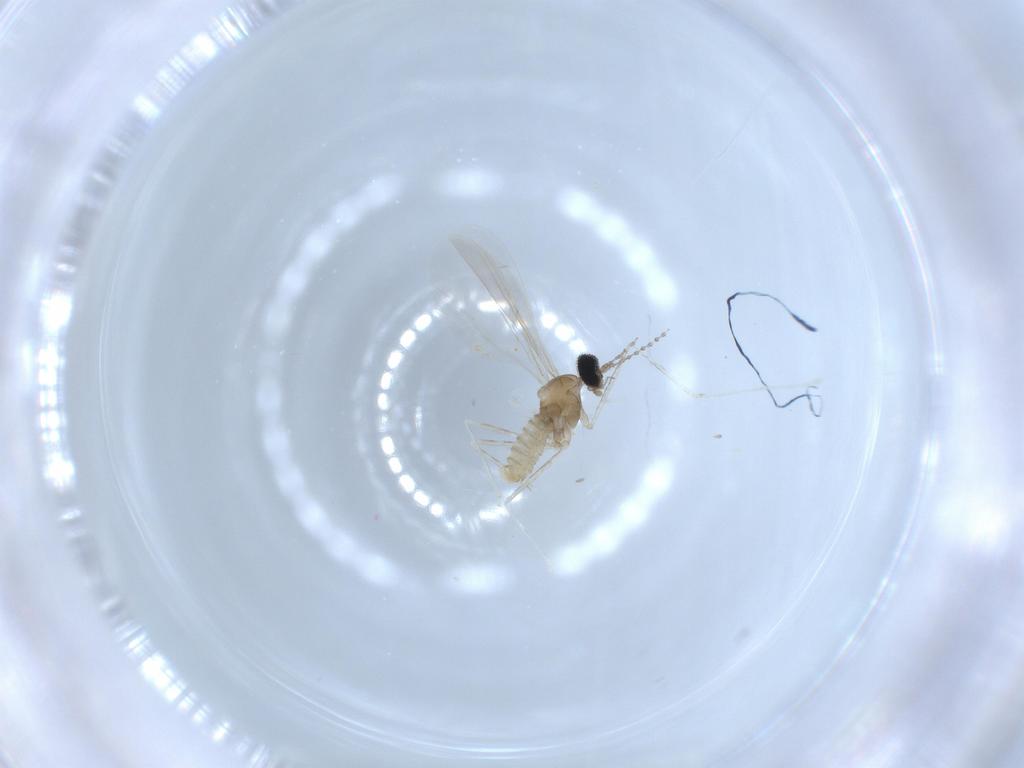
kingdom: Animalia
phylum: Arthropoda
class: Insecta
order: Diptera
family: Cecidomyiidae
